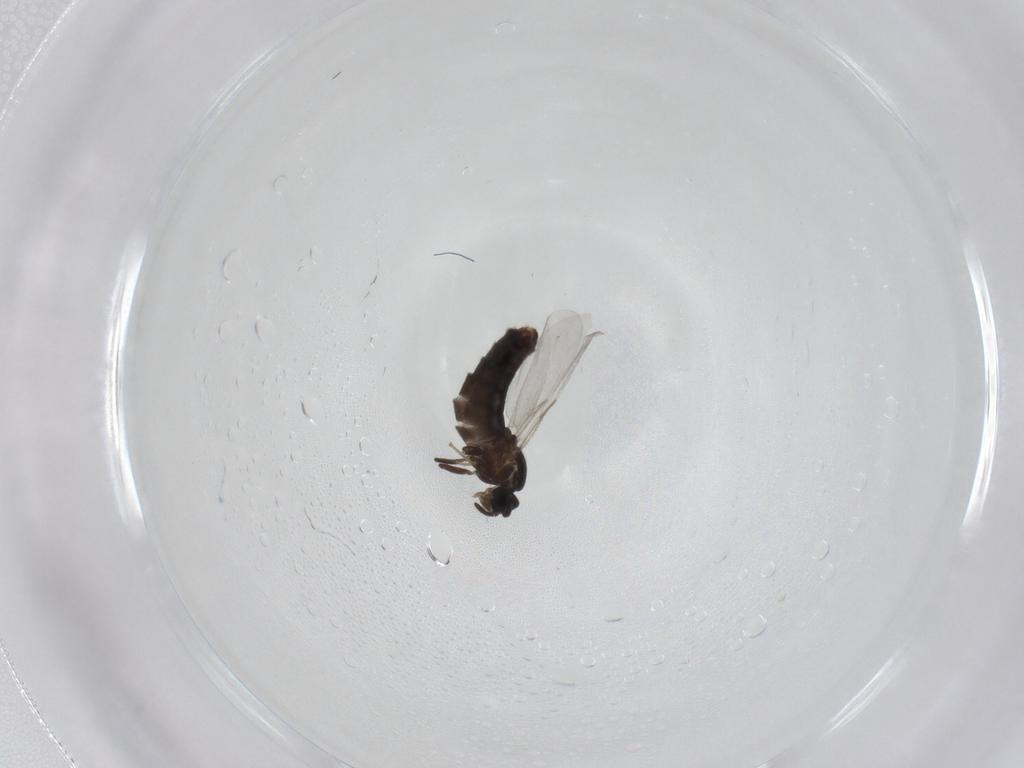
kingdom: Animalia
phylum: Arthropoda
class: Insecta
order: Diptera
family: Scatopsidae
